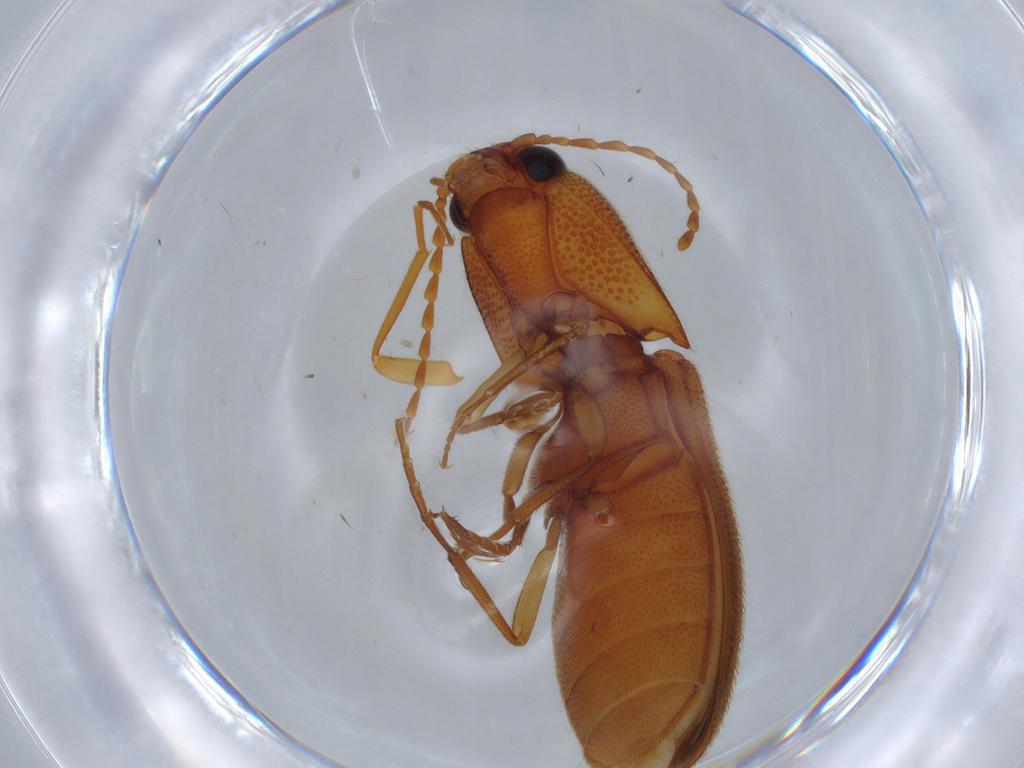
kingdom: Animalia
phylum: Arthropoda
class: Insecta
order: Coleoptera
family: Elateridae
